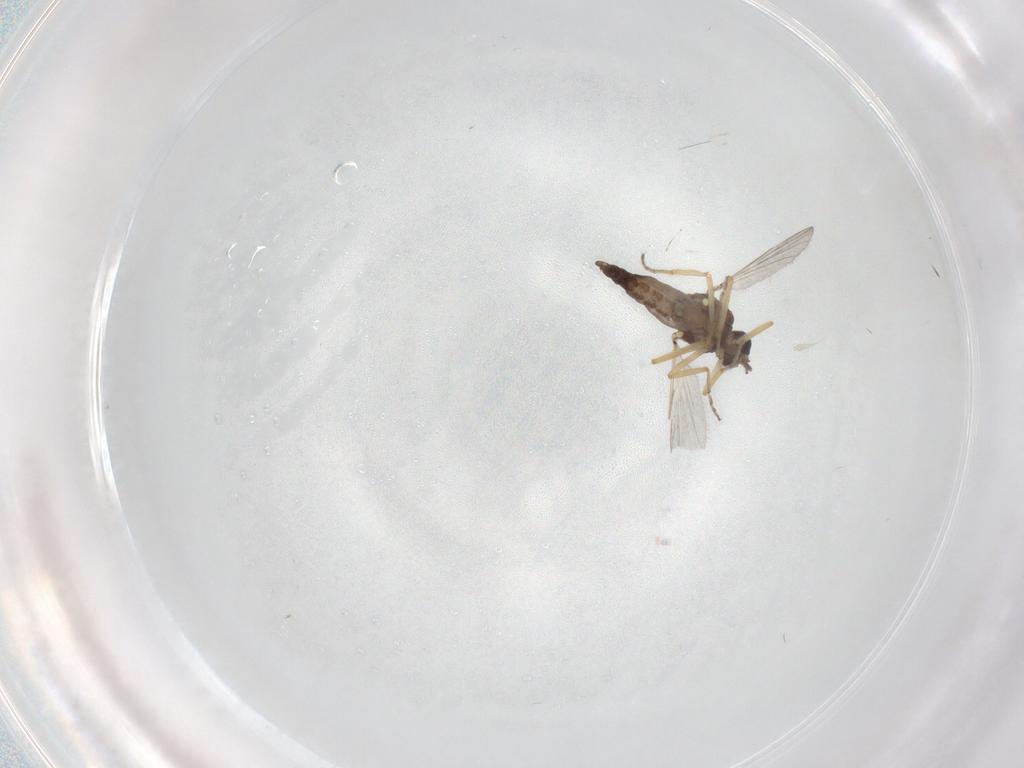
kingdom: Animalia
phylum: Arthropoda
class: Insecta
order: Diptera
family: Ceratopogonidae
